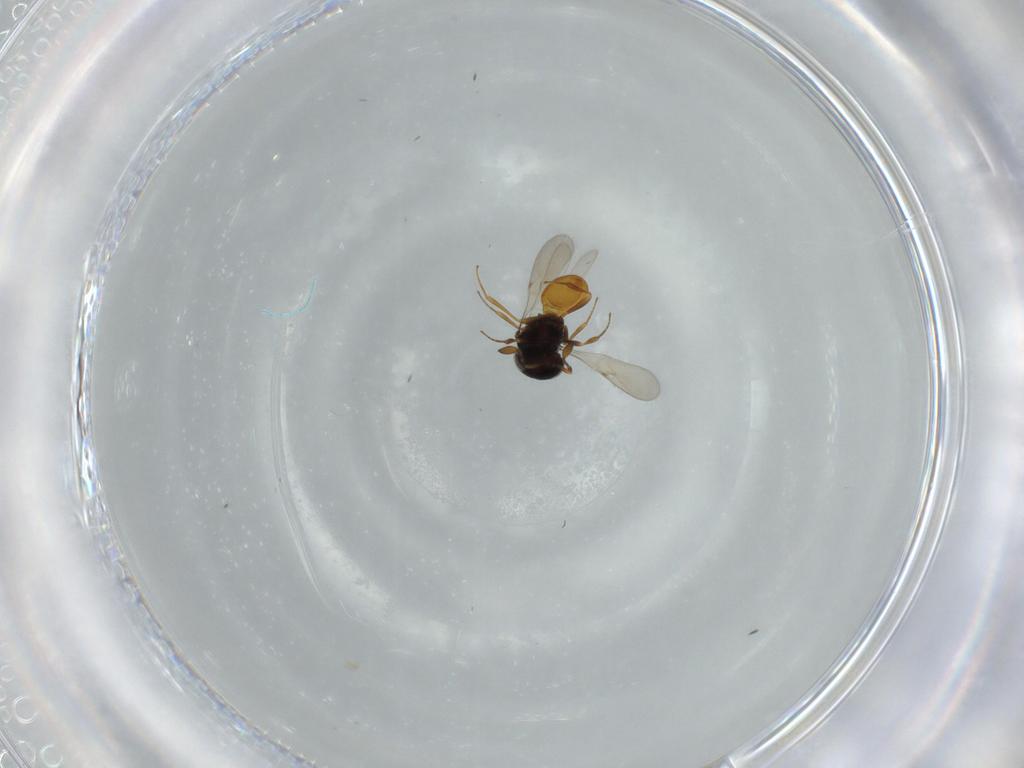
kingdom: Animalia
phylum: Arthropoda
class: Insecta
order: Hymenoptera
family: Scelionidae
